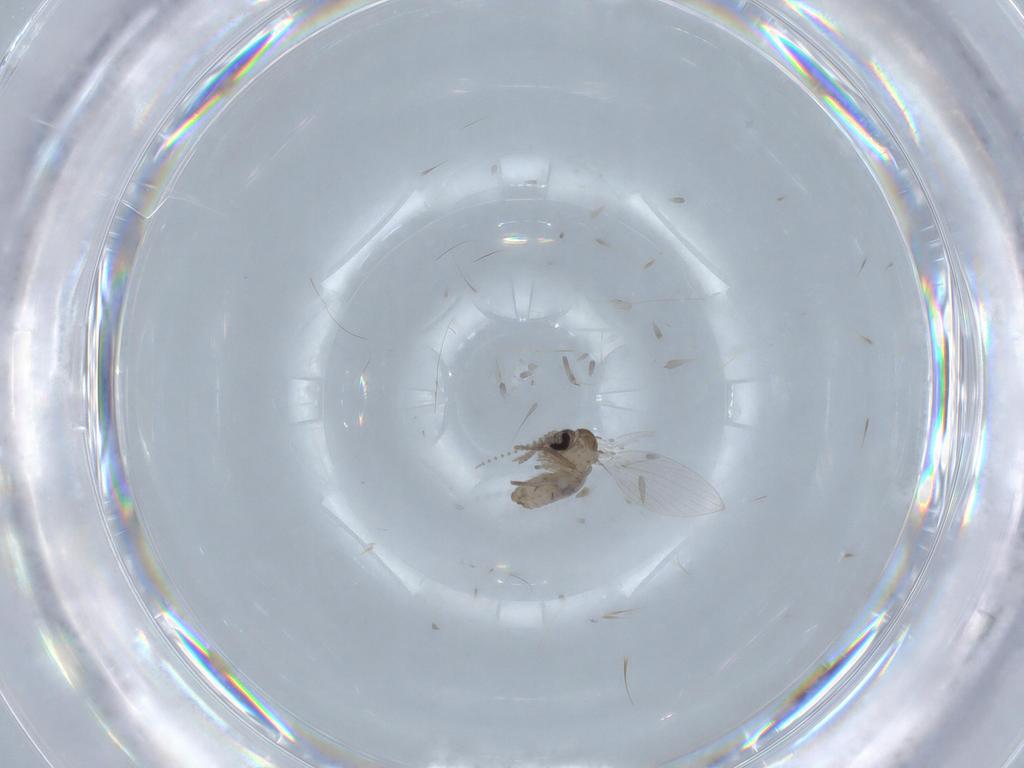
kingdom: Animalia
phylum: Arthropoda
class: Insecta
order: Diptera
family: Psychodidae
